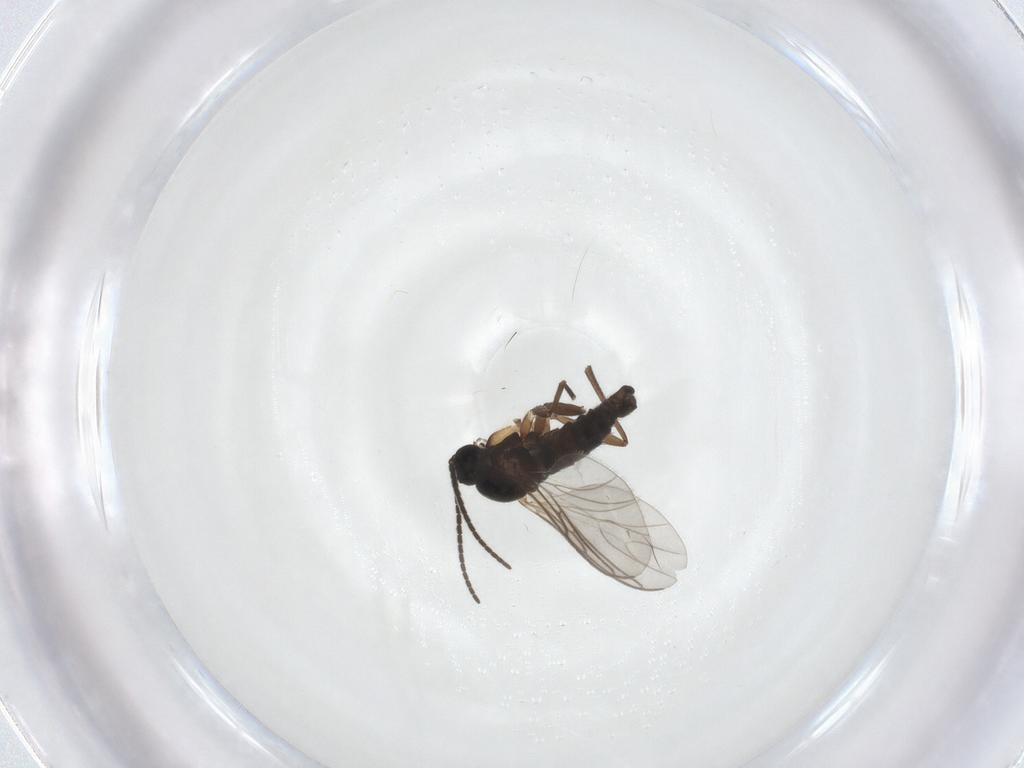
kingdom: Animalia
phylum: Arthropoda
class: Insecta
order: Diptera
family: Sciaridae
